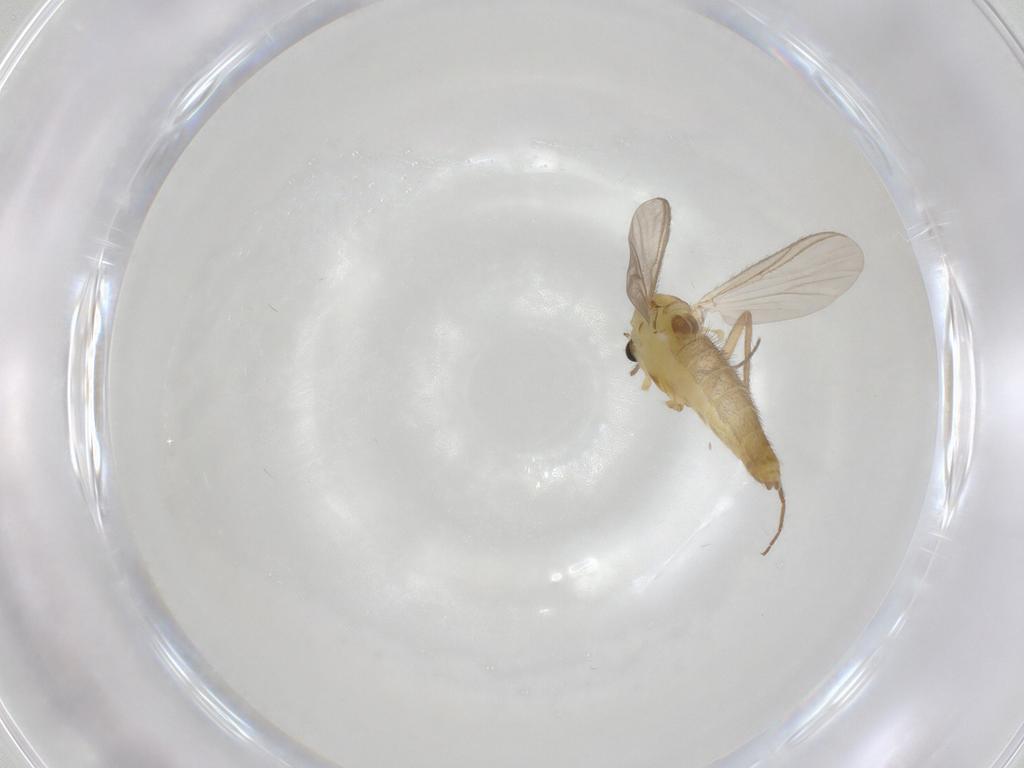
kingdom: Animalia
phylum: Arthropoda
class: Insecta
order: Diptera
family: Chironomidae
